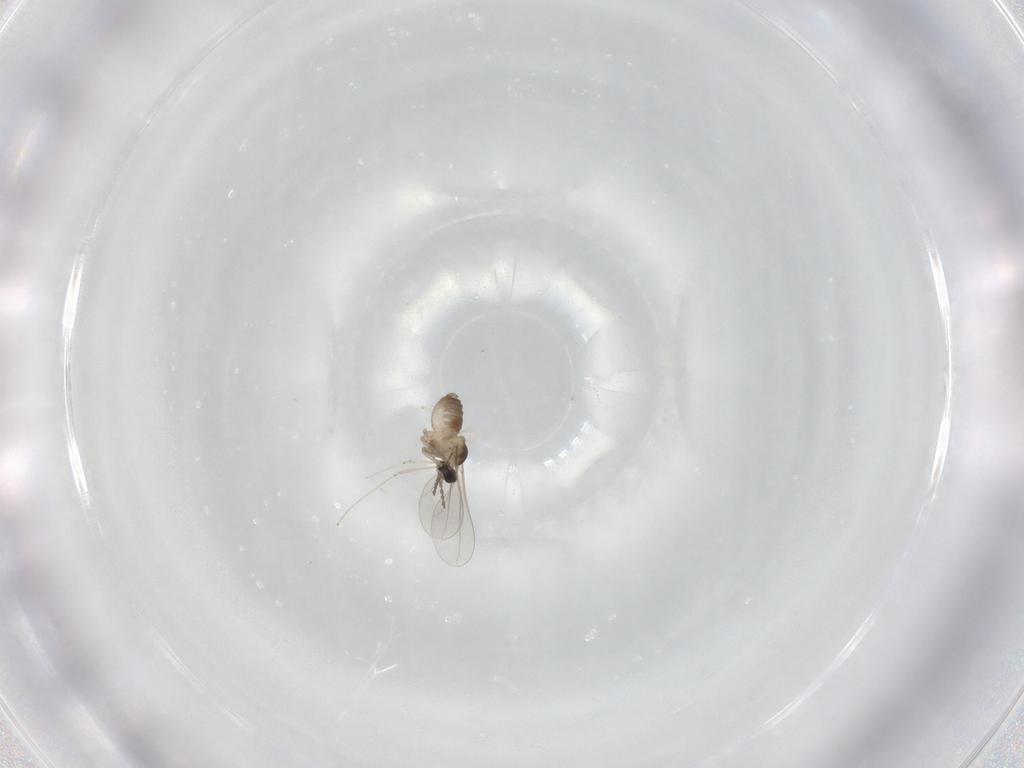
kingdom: Animalia
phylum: Arthropoda
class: Insecta
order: Diptera
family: Cecidomyiidae
